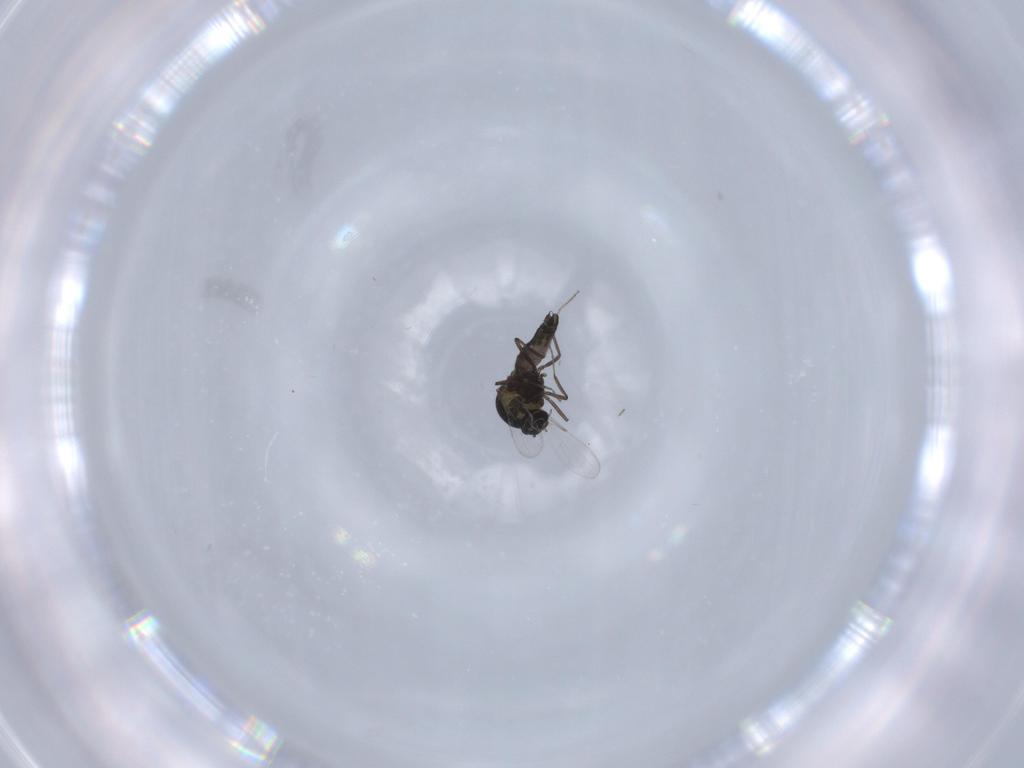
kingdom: Animalia
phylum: Arthropoda
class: Insecta
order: Diptera
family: Ceratopogonidae
